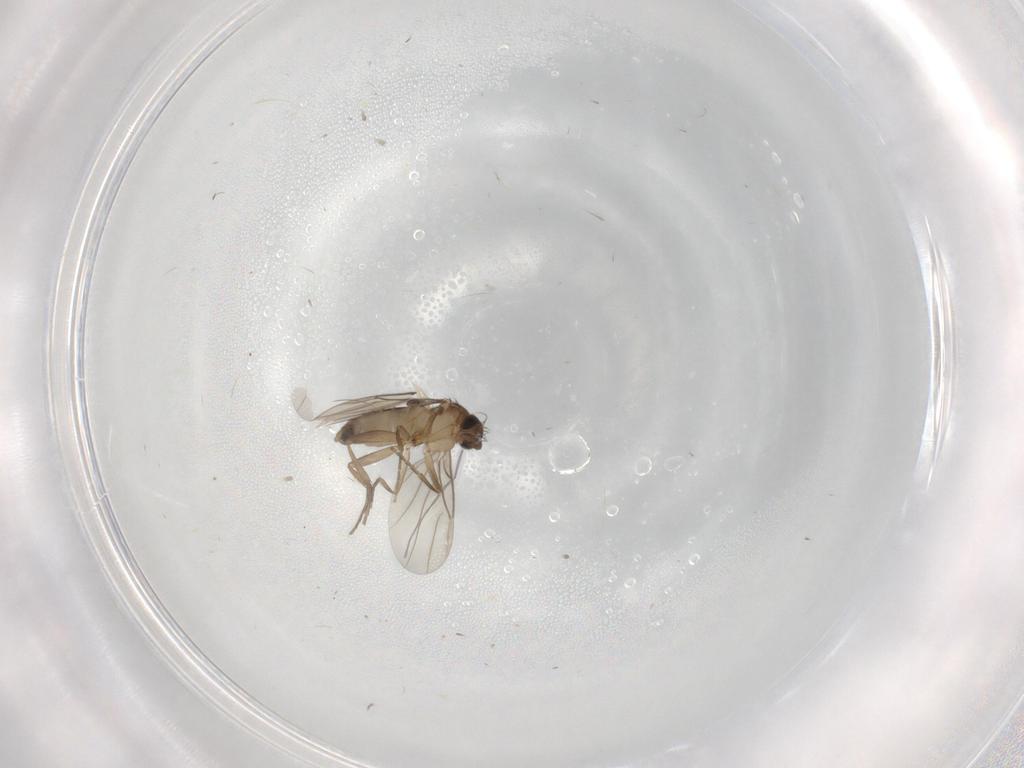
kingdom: Animalia
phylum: Arthropoda
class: Insecta
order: Diptera
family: Phoridae
